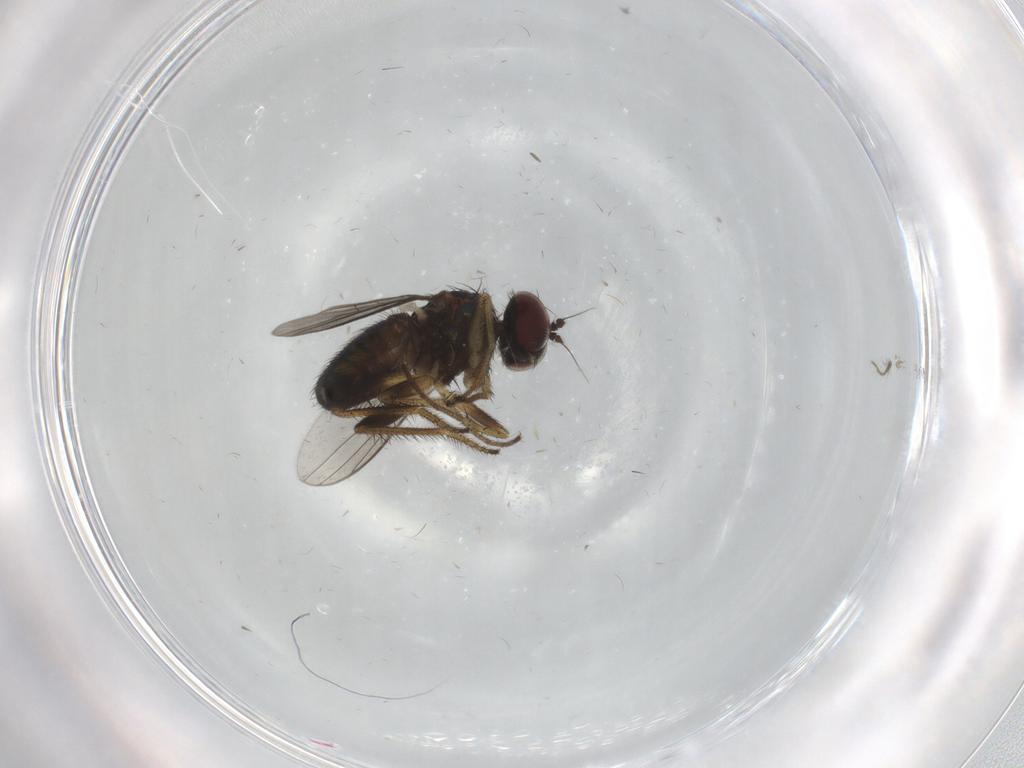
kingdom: Animalia
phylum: Arthropoda
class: Insecta
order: Diptera
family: Dolichopodidae
